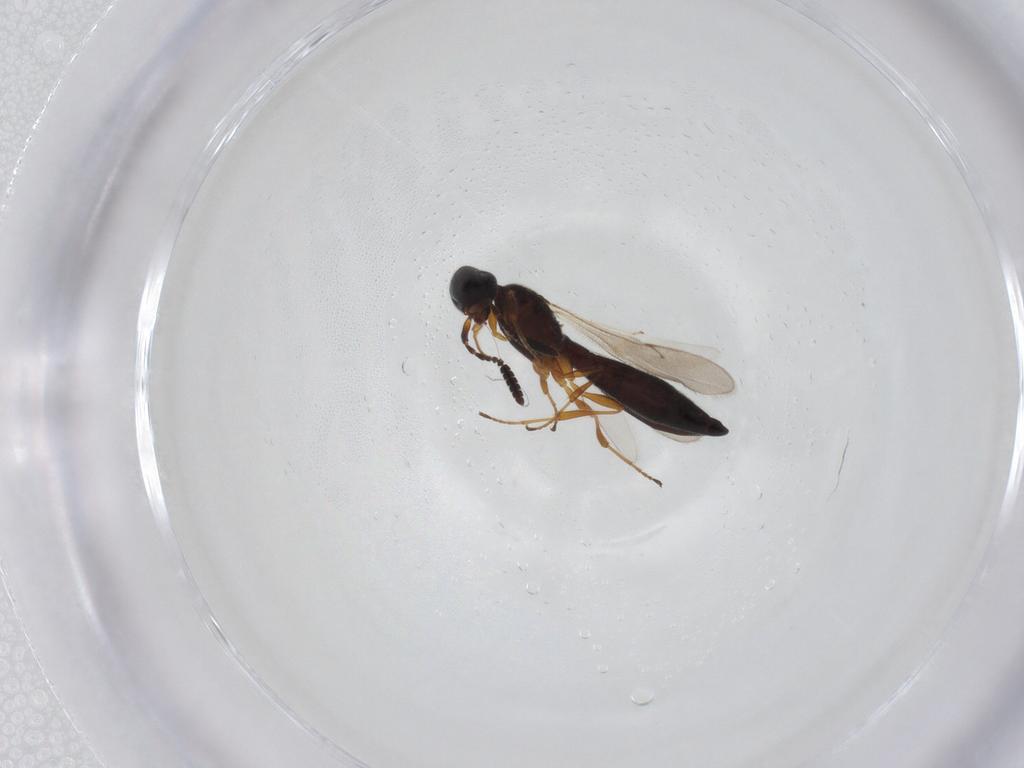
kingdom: Animalia
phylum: Arthropoda
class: Insecta
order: Hymenoptera
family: Scelionidae
